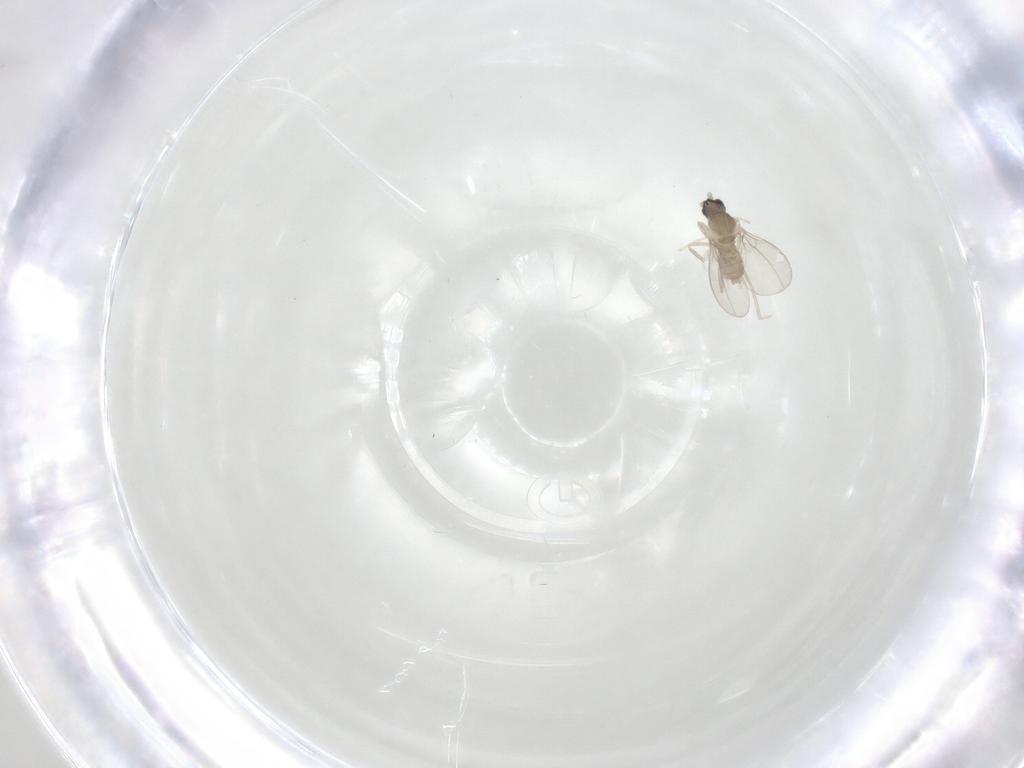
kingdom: Animalia
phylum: Arthropoda
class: Insecta
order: Diptera
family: Cecidomyiidae
